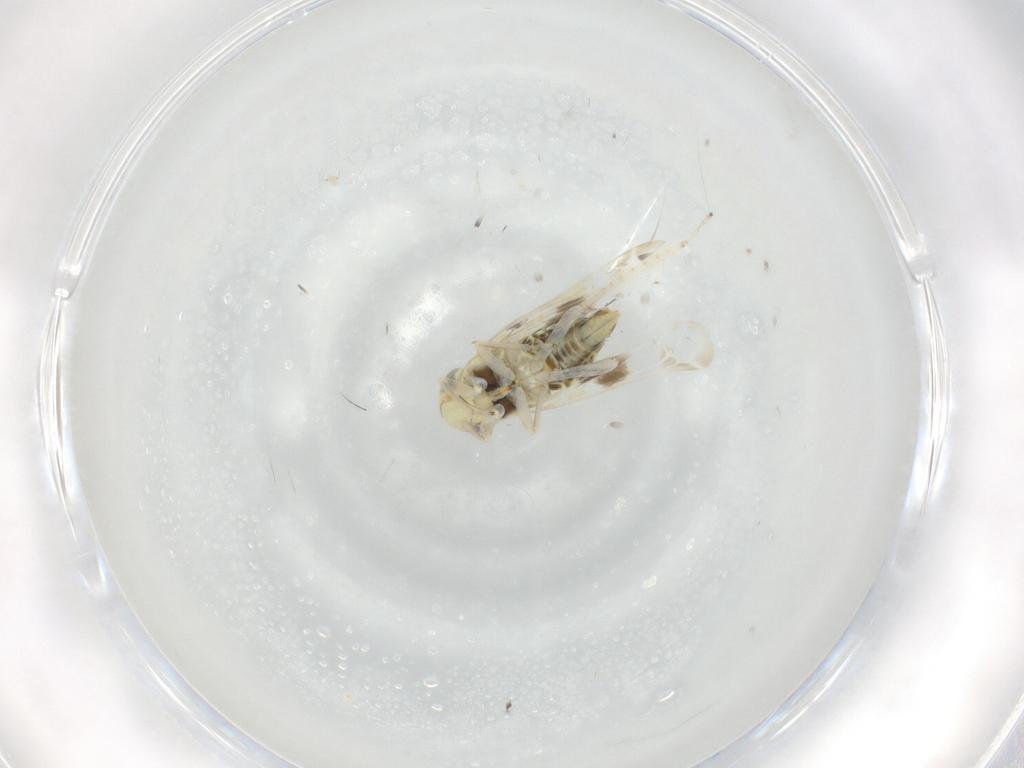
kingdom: Animalia
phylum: Arthropoda
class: Insecta
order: Hemiptera
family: Cicadellidae
